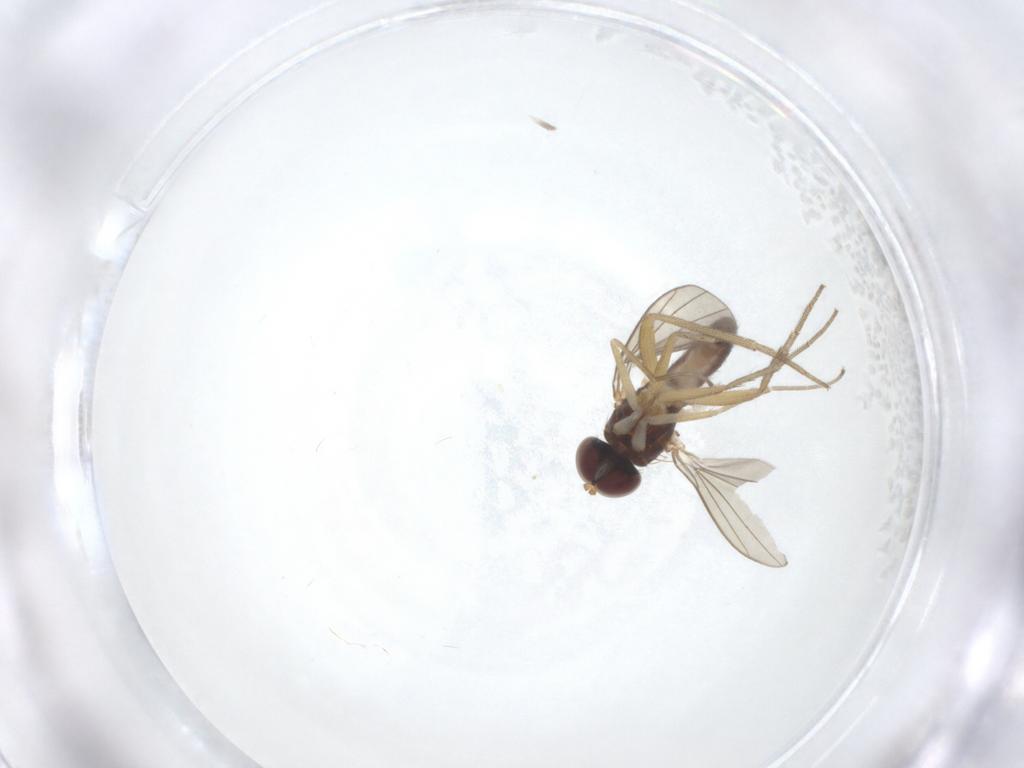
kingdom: Animalia
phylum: Arthropoda
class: Insecta
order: Diptera
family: Dolichopodidae
